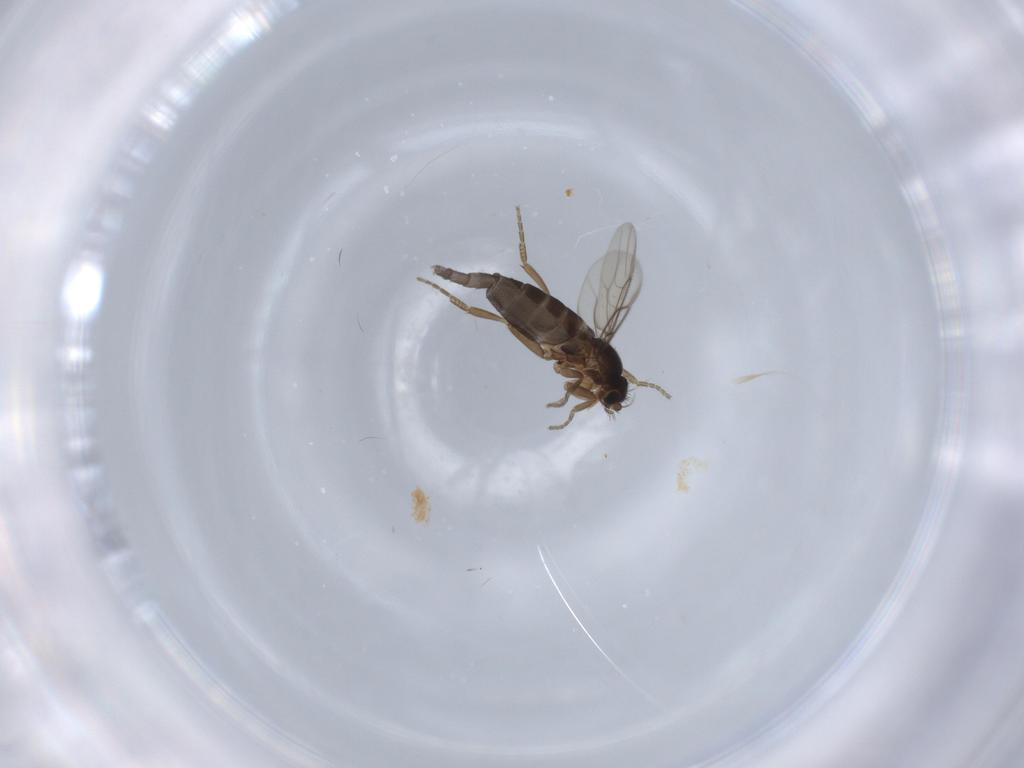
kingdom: Animalia
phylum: Arthropoda
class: Insecta
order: Diptera
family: Phoridae
